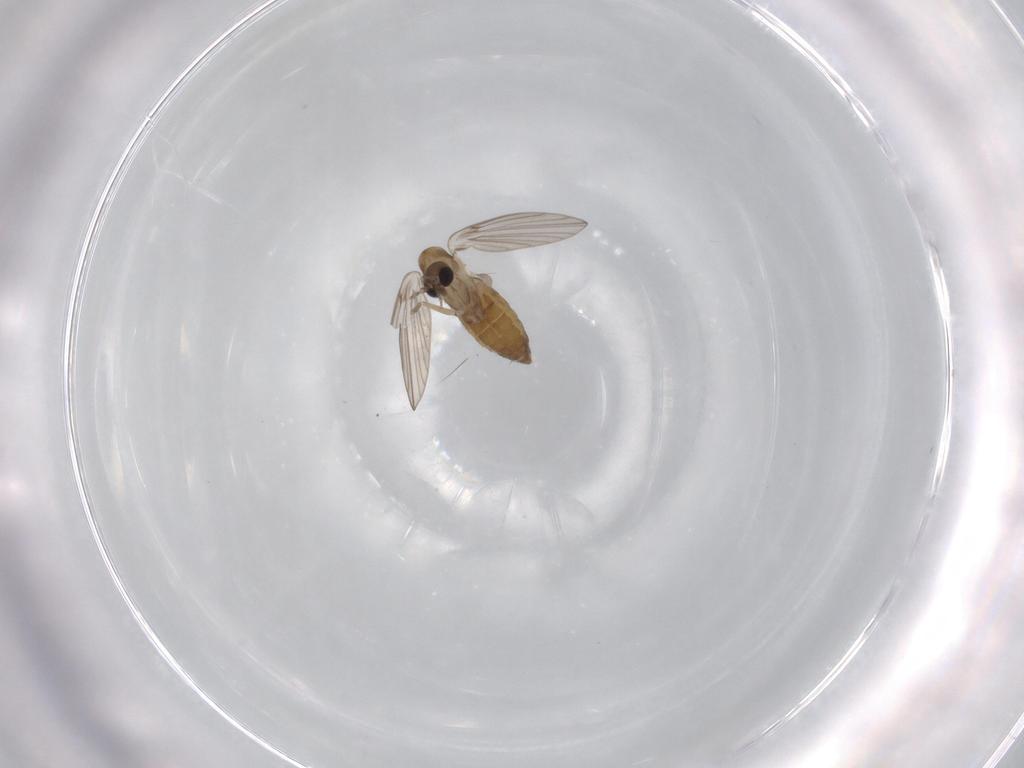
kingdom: Animalia
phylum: Arthropoda
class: Insecta
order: Diptera
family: Psychodidae
